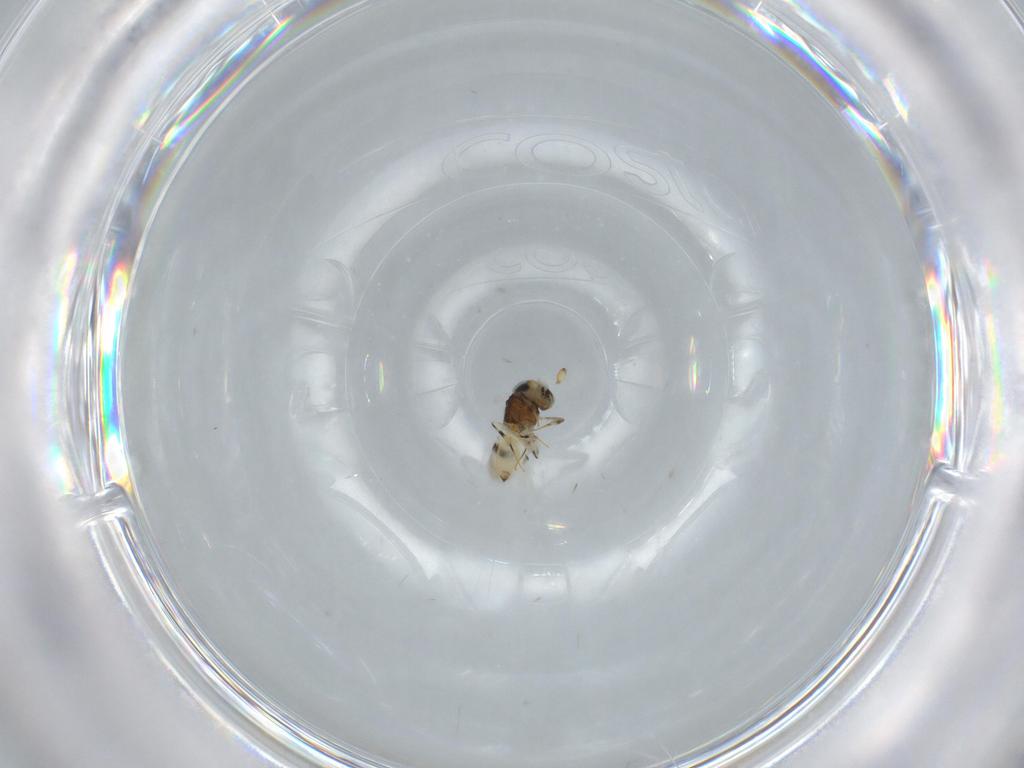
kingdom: Animalia
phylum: Arthropoda
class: Insecta
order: Hymenoptera
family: Scelionidae
